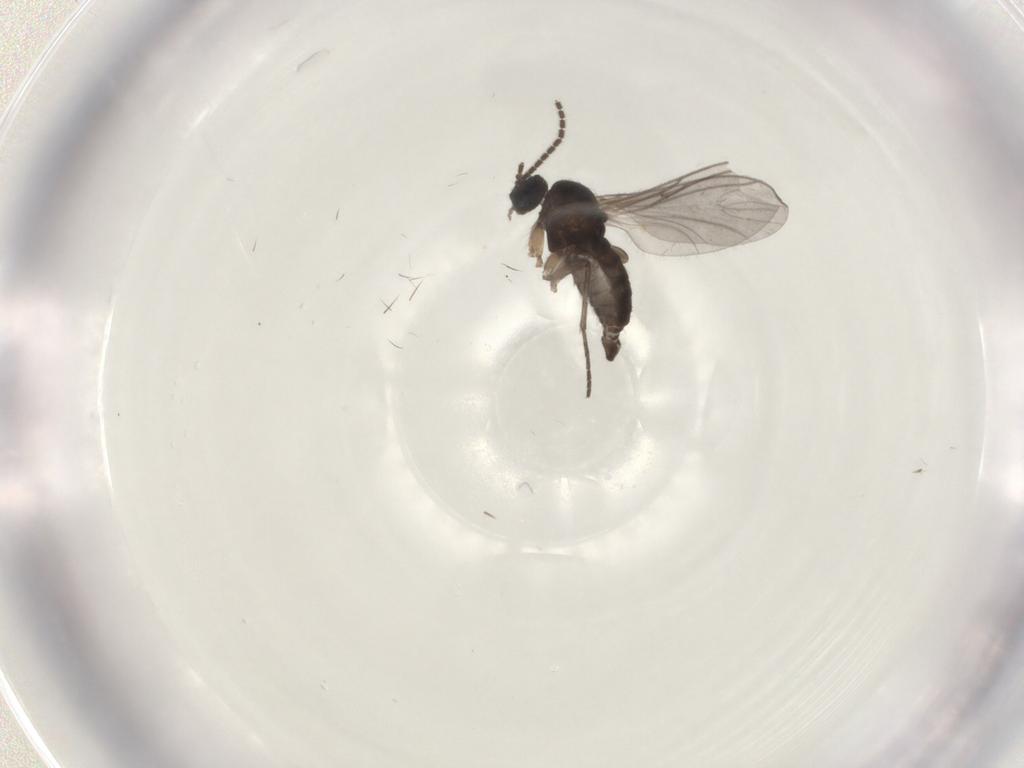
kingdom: Animalia
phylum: Arthropoda
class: Insecta
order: Diptera
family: Sciaridae
